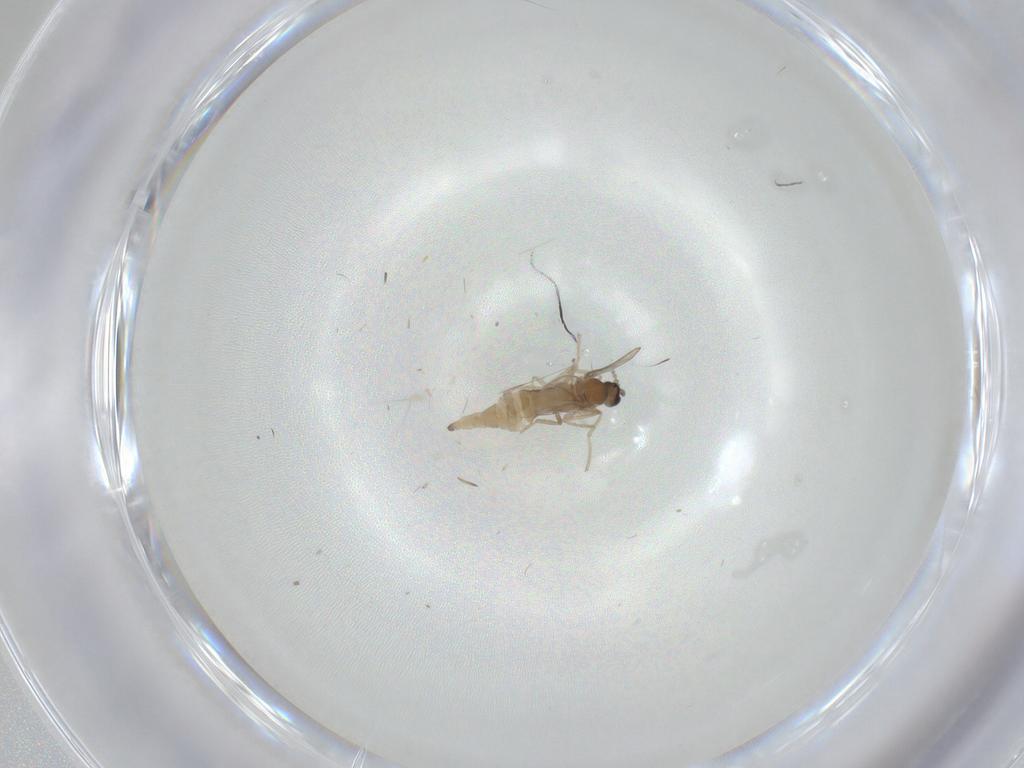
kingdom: Animalia
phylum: Arthropoda
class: Insecta
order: Diptera
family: Cecidomyiidae
